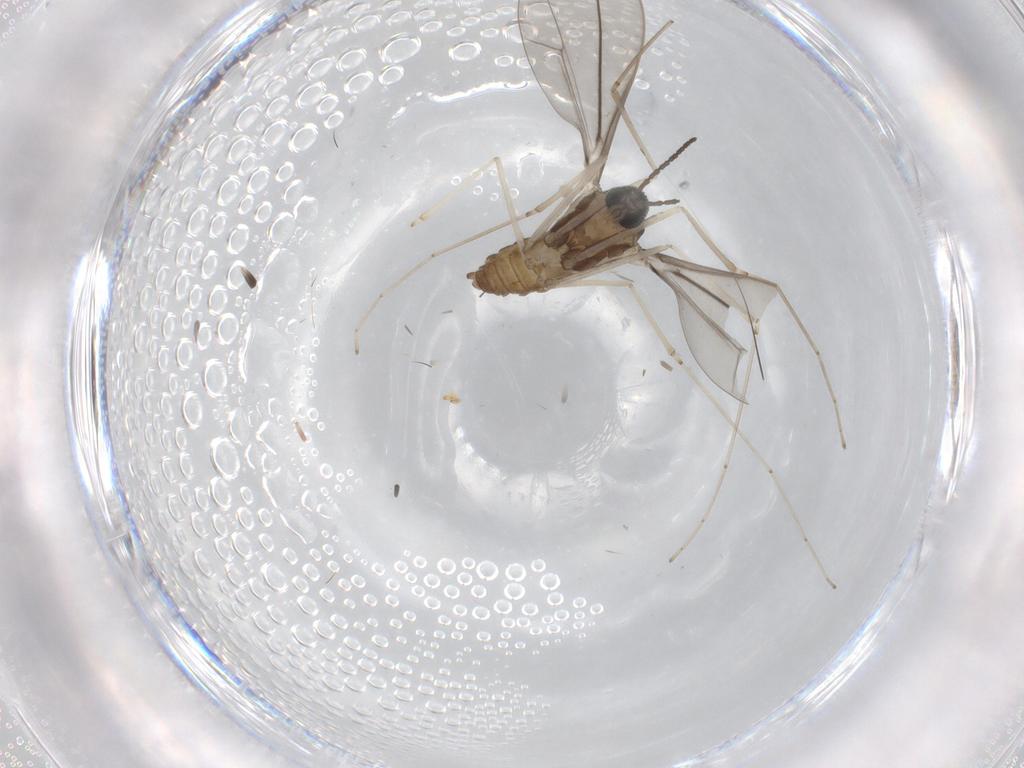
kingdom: Animalia
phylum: Arthropoda
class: Insecta
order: Diptera
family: Cecidomyiidae
